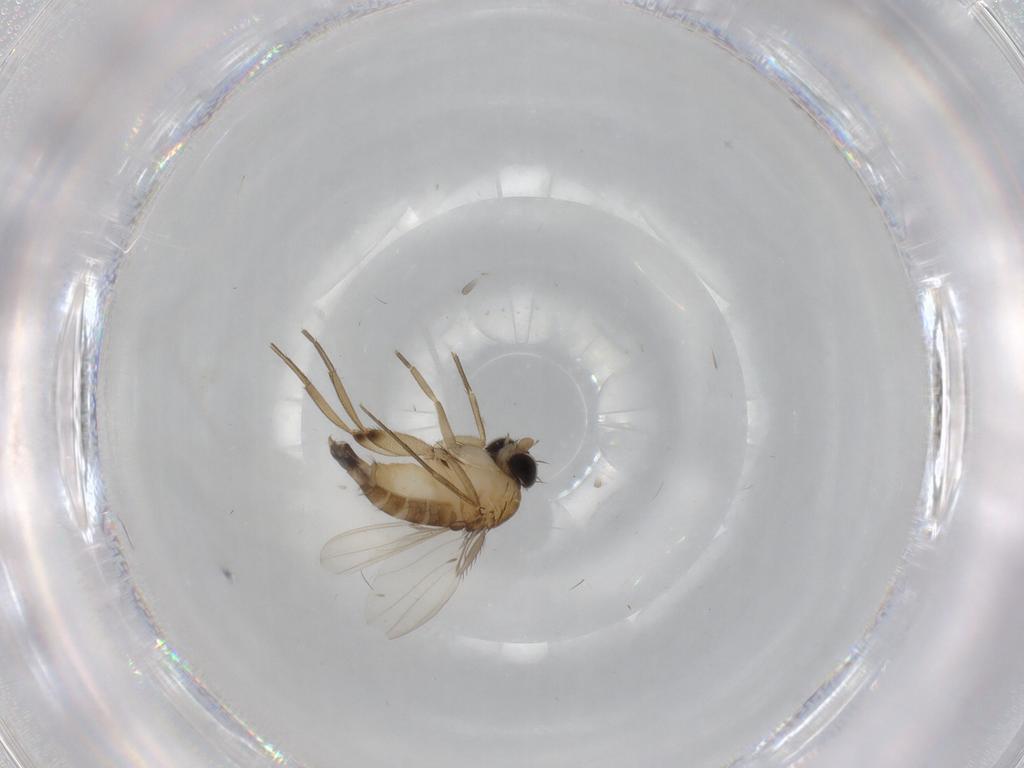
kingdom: Animalia
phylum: Arthropoda
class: Insecta
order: Diptera
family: Phoridae
